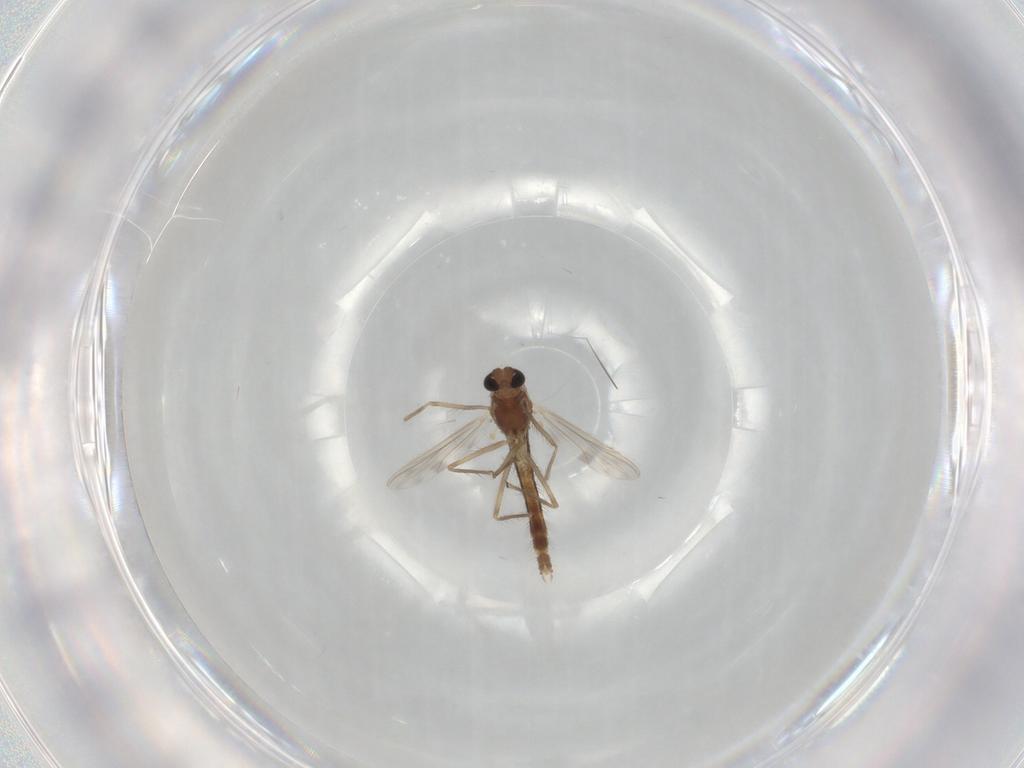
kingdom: Animalia
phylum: Arthropoda
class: Insecta
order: Diptera
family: Chironomidae
